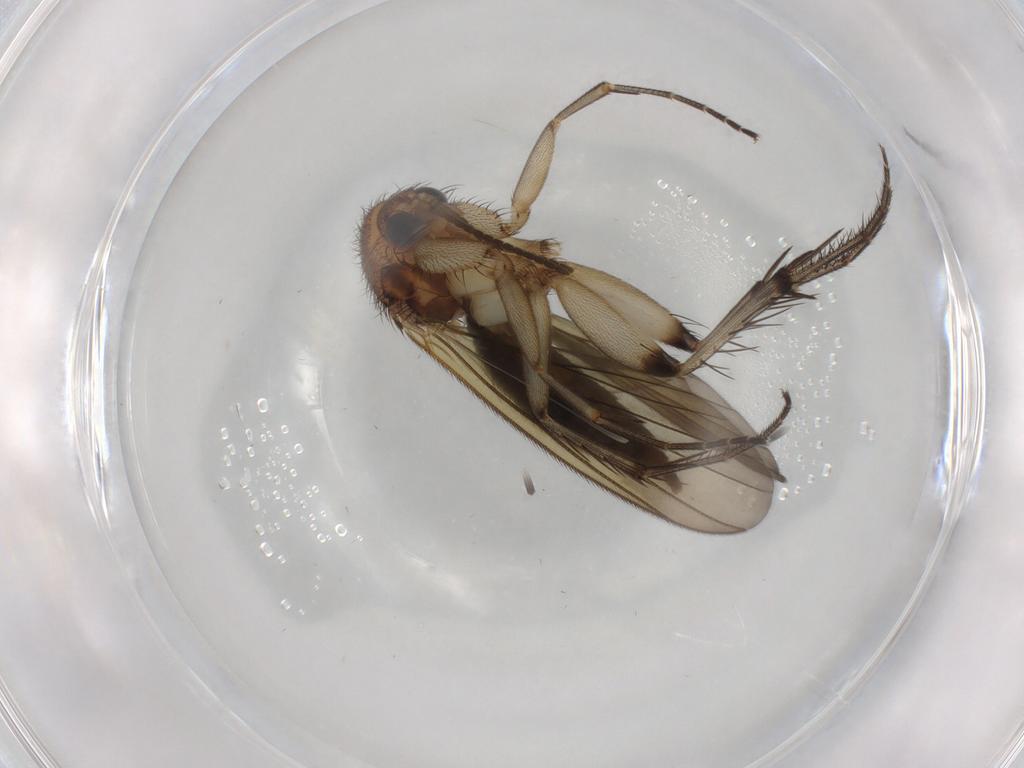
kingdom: Animalia
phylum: Arthropoda
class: Insecta
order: Diptera
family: Mycetophilidae
